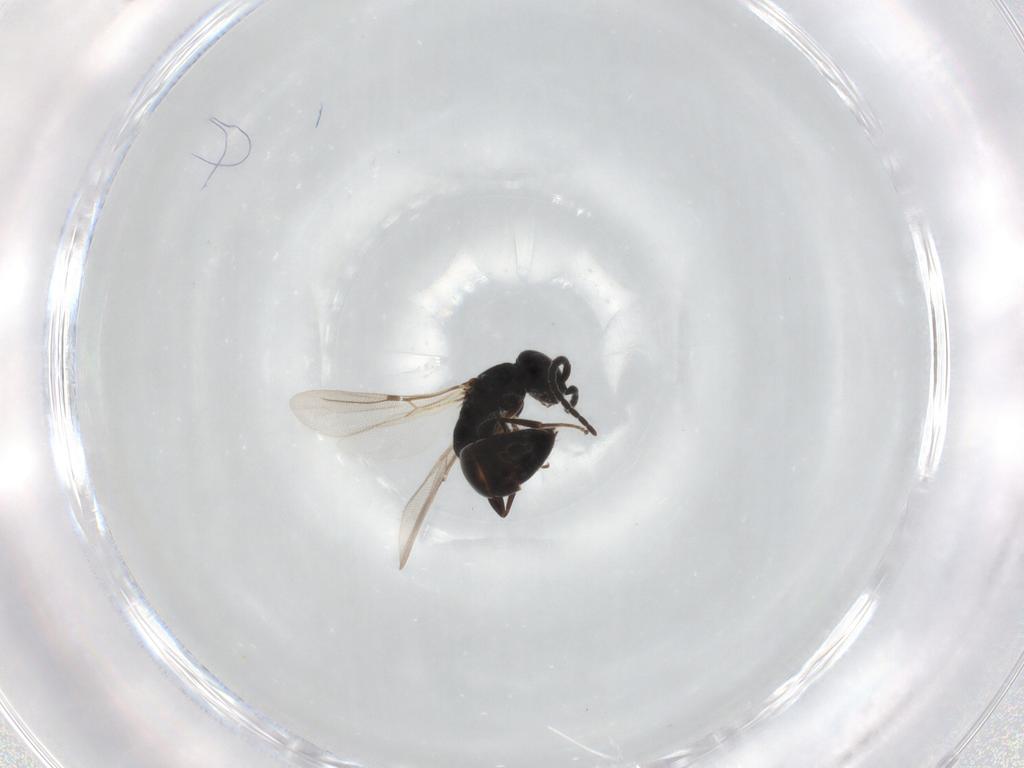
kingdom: Animalia
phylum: Arthropoda
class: Insecta
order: Hymenoptera
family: Bethylidae
